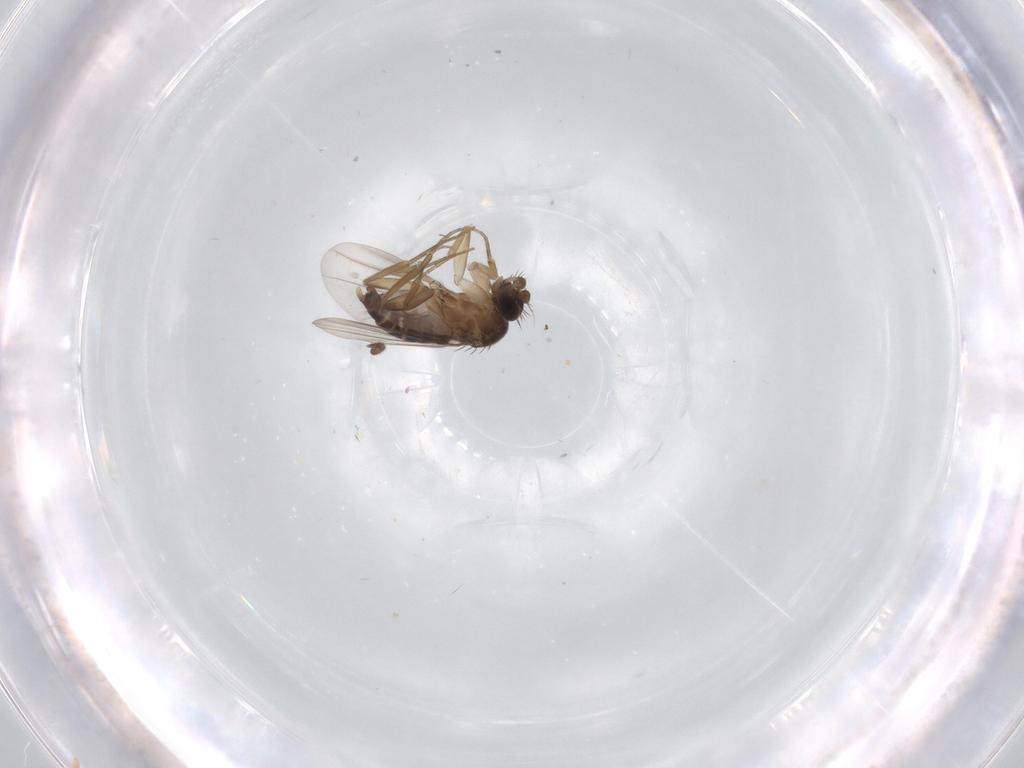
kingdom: Animalia
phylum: Arthropoda
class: Insecta
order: Diptera
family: Phoridae
